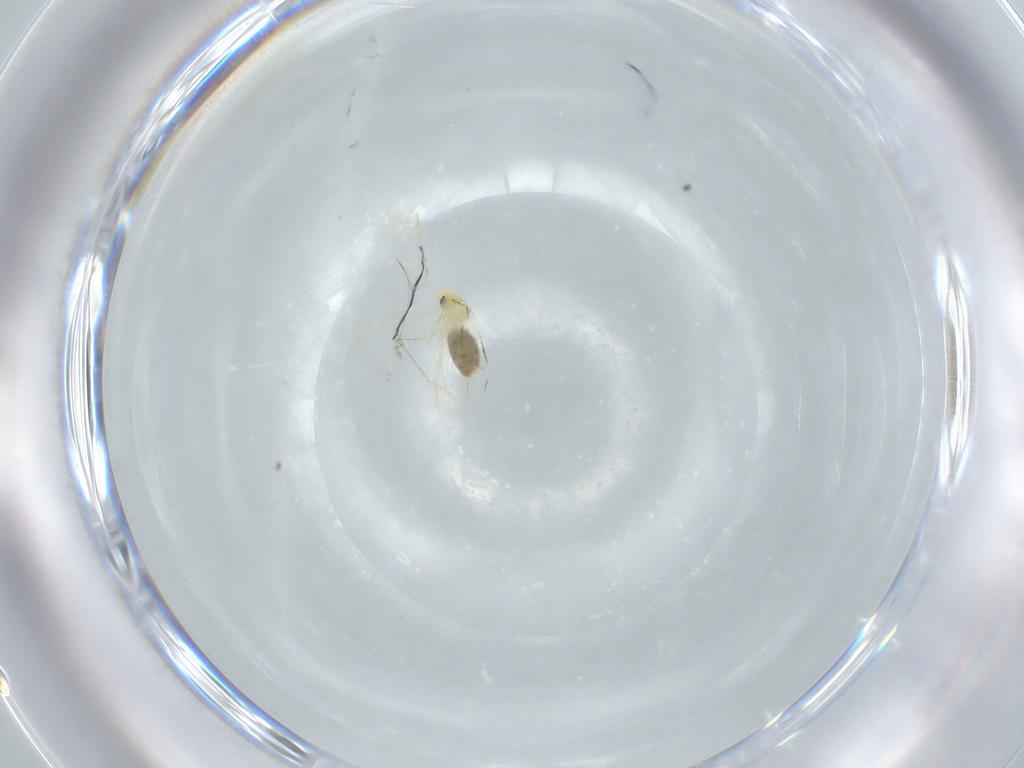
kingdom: Animalia
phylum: Arthropoda
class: Insecta
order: Hemiptera
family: Aleyrodidae
